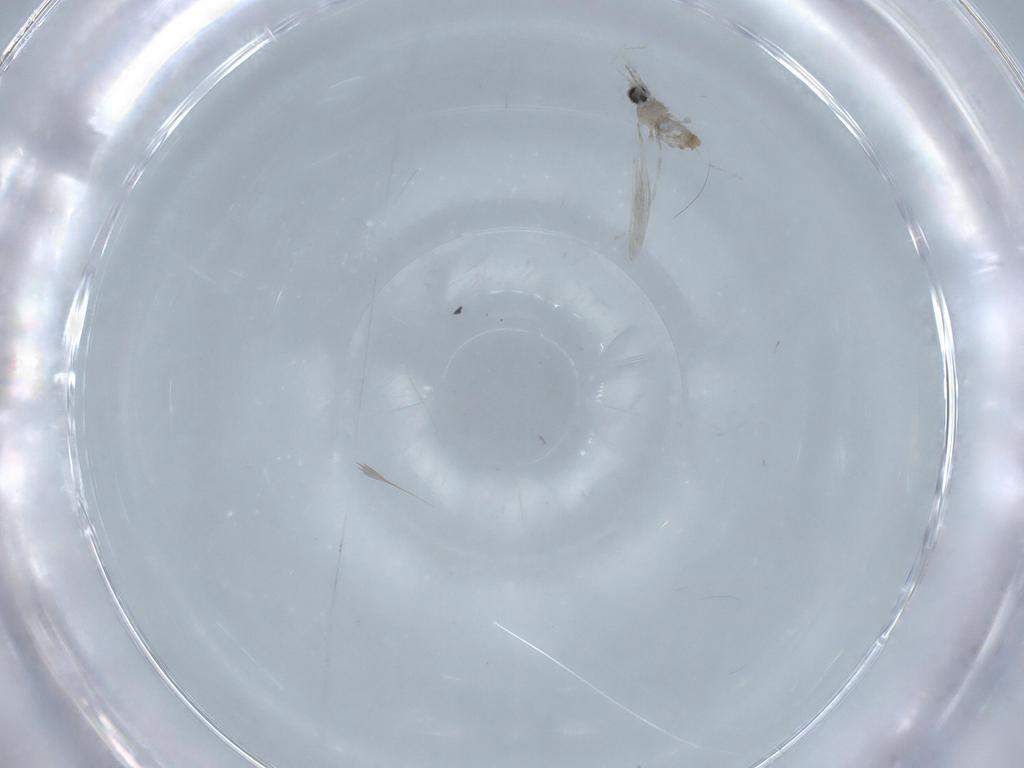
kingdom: Animalia
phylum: Arthropoda
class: Insecta
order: Diptera
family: Cecidomyiidae
